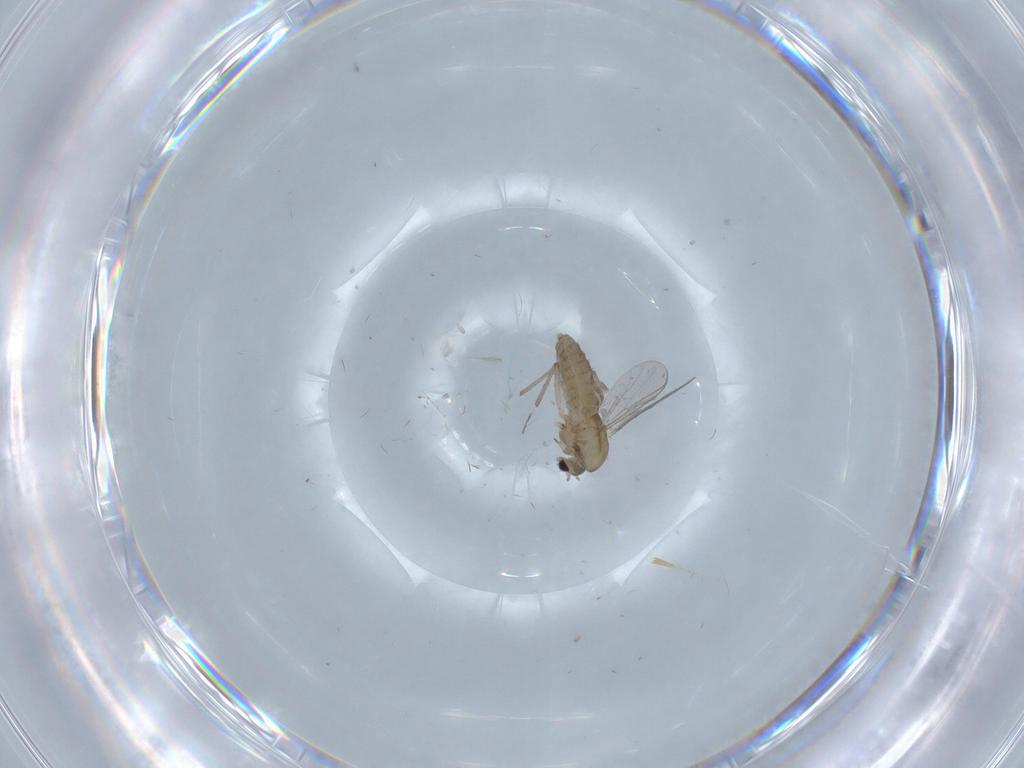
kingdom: Animalia
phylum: Arthropoda
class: Insecta
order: Diptera
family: Chironomidae
